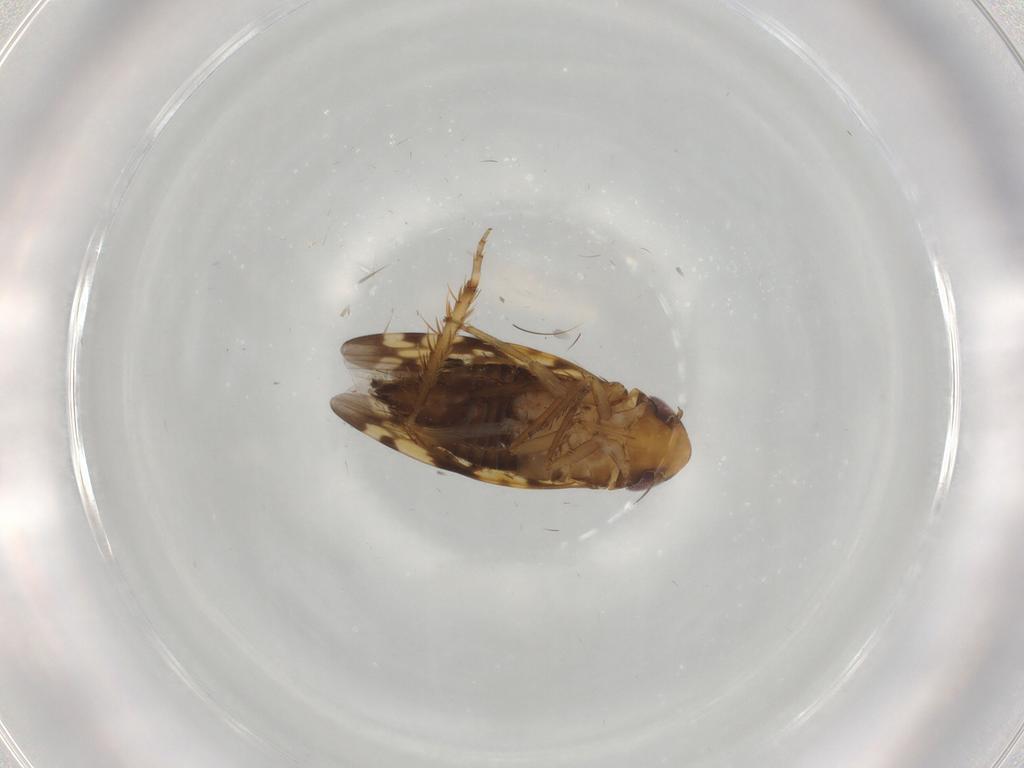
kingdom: Animalia
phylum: Arthropoda
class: Insecta
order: Hemiptera
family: Cicadellidae
